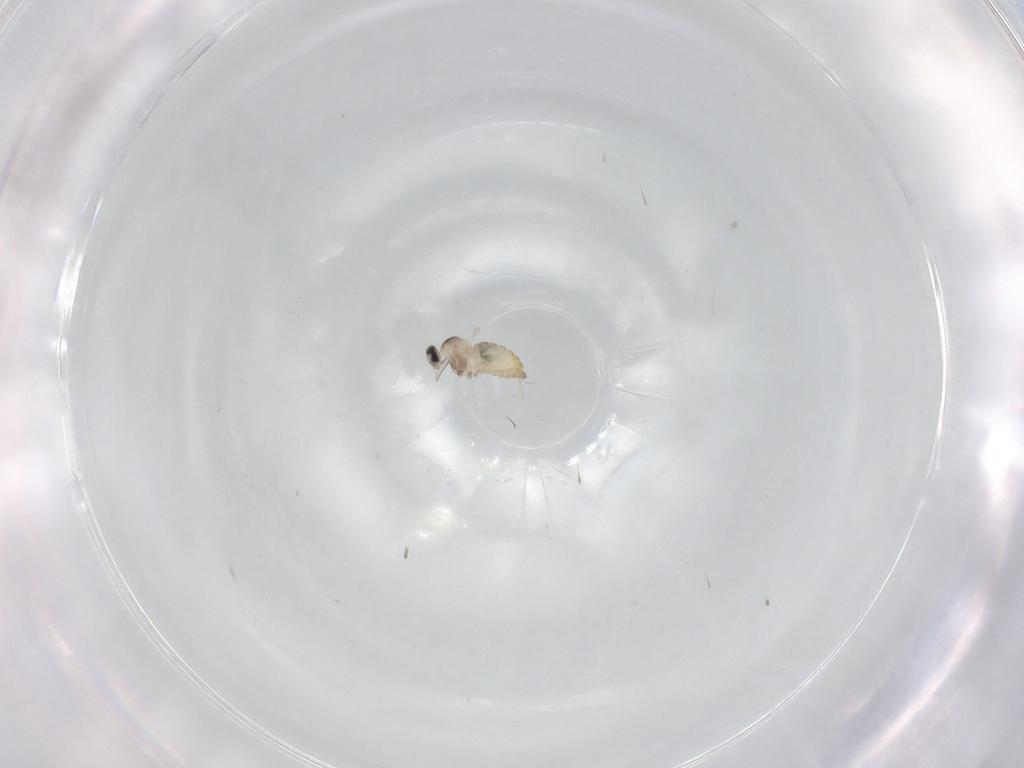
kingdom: Animalia
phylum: Arthropoda
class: Insecta
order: Diptera
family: Cecidomyiidae
